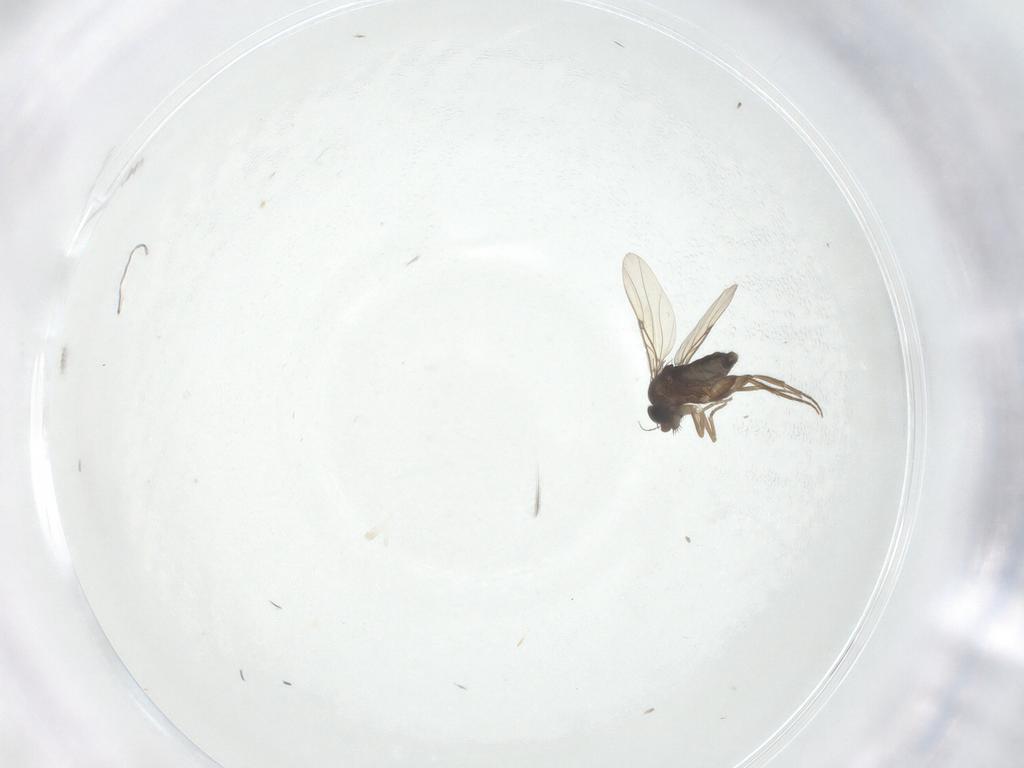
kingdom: Animalia
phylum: Arthropoda
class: Insecta
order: Diptera
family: Phoridae
